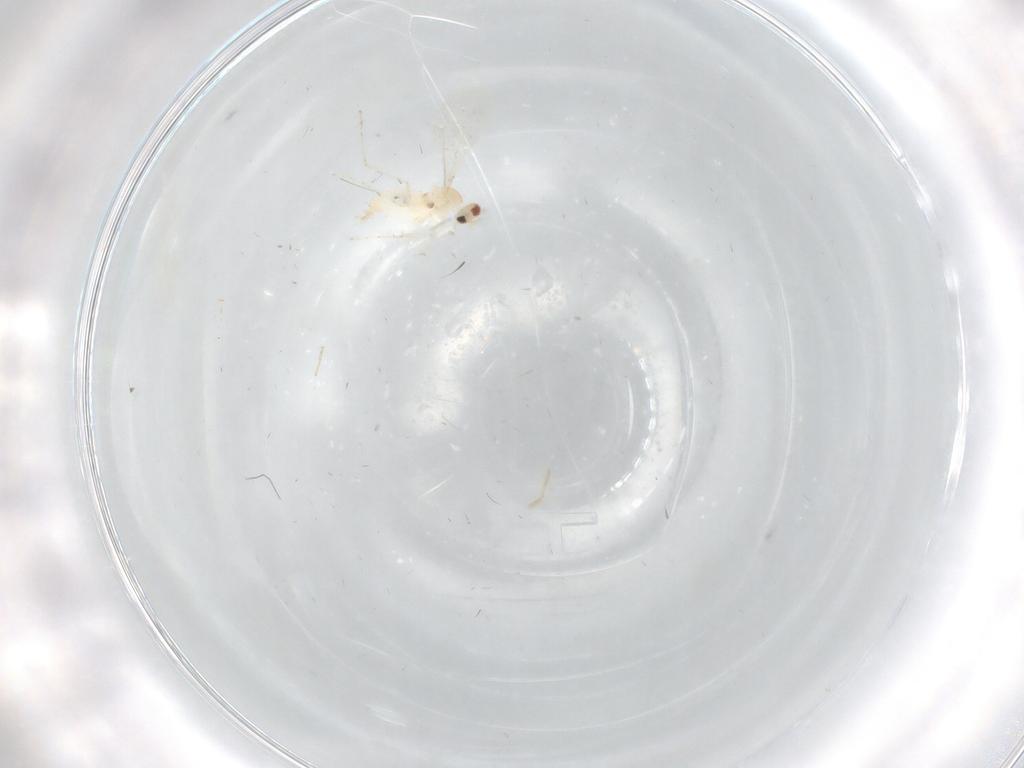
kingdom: Animalia
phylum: Arthropoda
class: Insecta
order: Diptera
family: Cecidomyiidae
